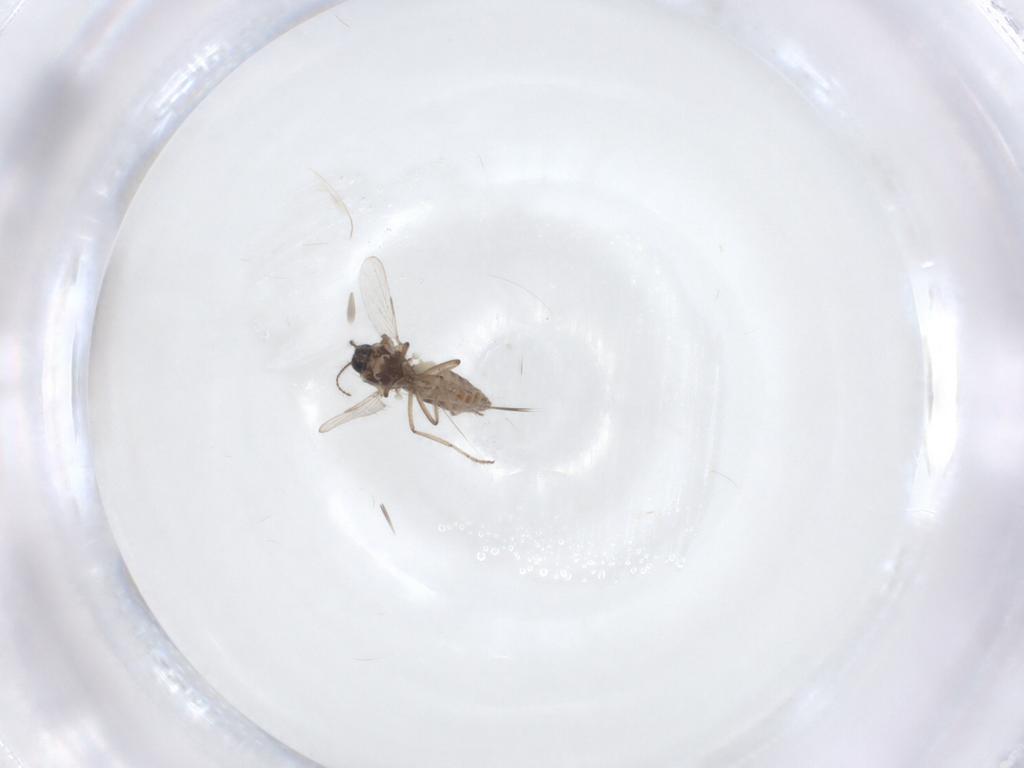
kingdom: Animalia
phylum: Arthropoda
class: Insecta
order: Diptera
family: Ceratopogonidae
